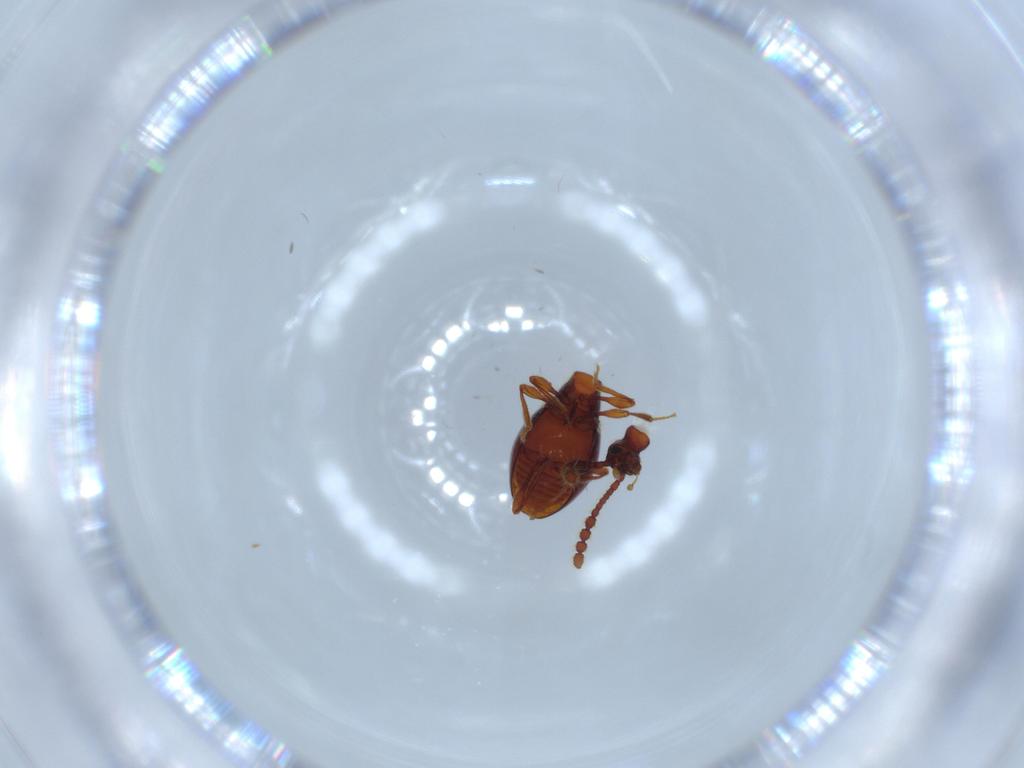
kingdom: Animalia
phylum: Arthropoda
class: Insecta
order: Coleoptera
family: Staphylinidae
